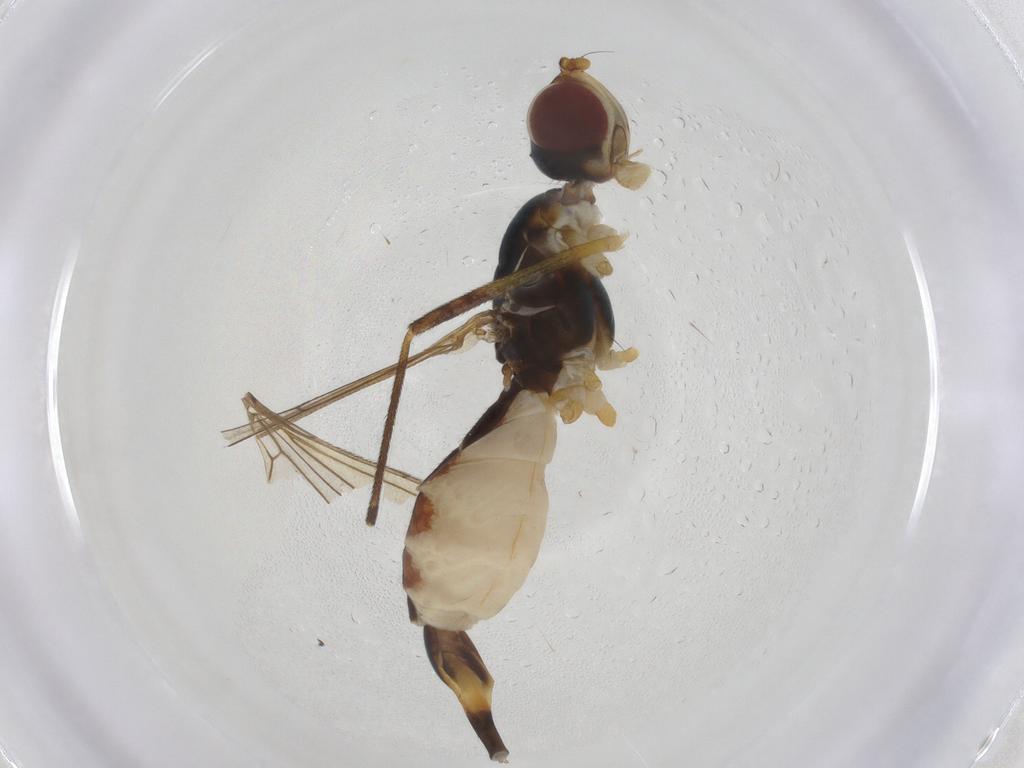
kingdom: Animalia
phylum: Arthropoda
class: Insecta
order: Diptera
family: Micropezidae
